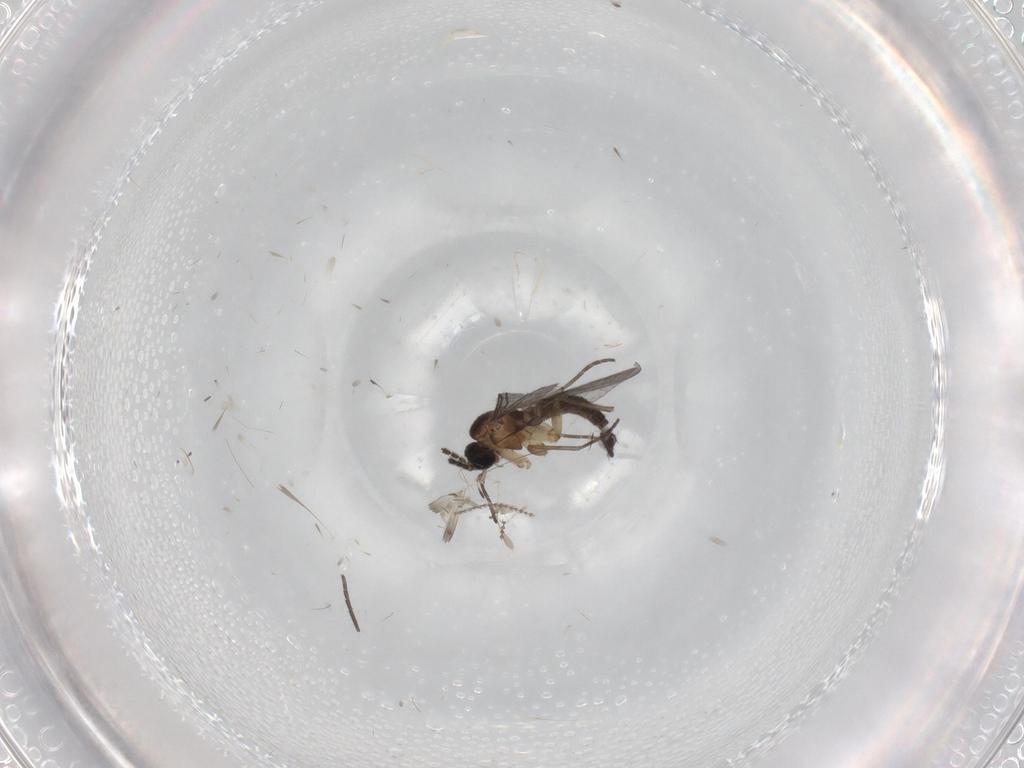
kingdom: Animalia
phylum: Arthropoda
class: Insecta
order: Diptera
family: Sciaridae
